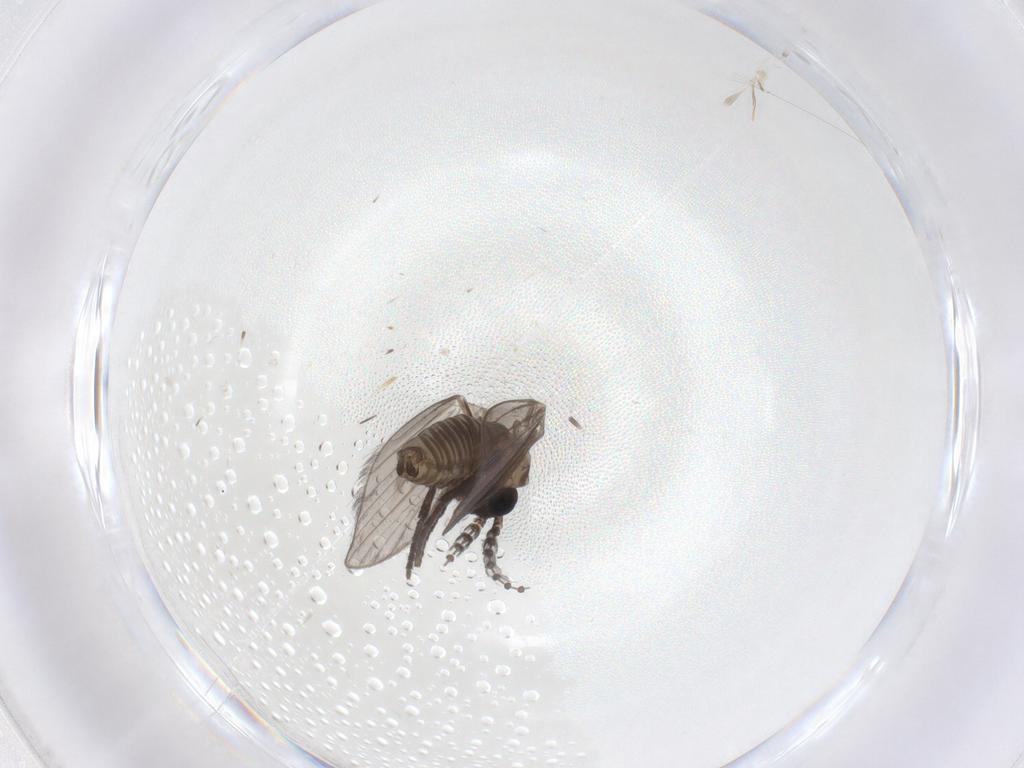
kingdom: Animalia
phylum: Arthropoda
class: Insecta
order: Diptera
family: Psychodidae
